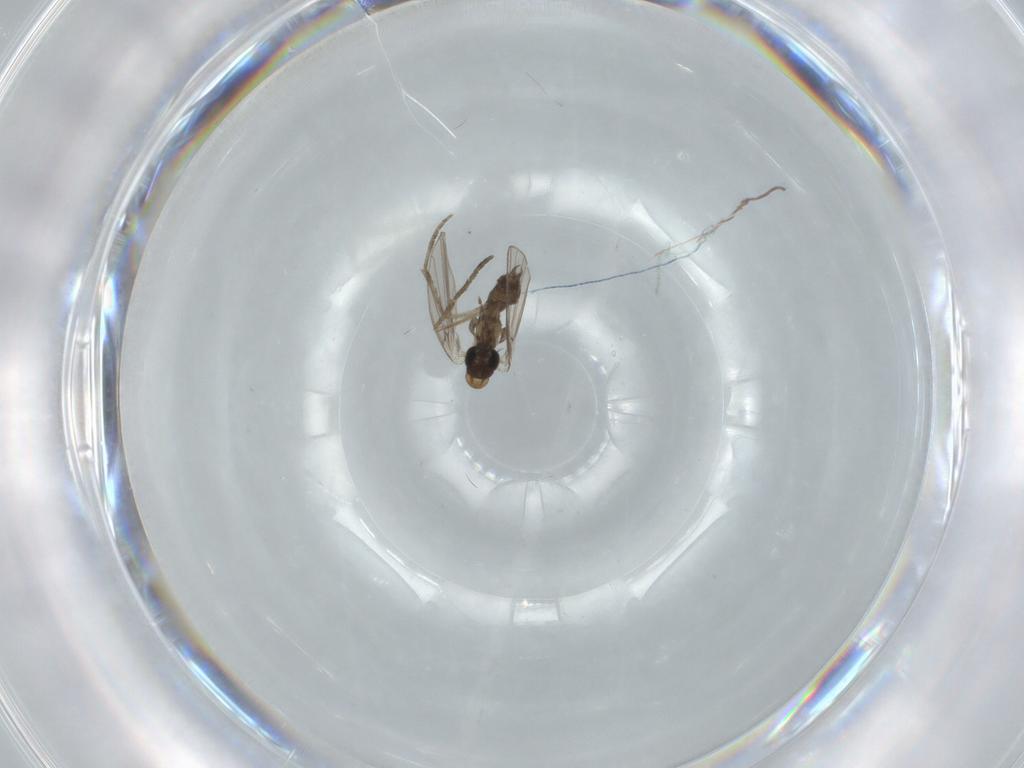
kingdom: Animalia
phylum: Arthropoda
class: Insecta
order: Diptera
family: Psychodidae
